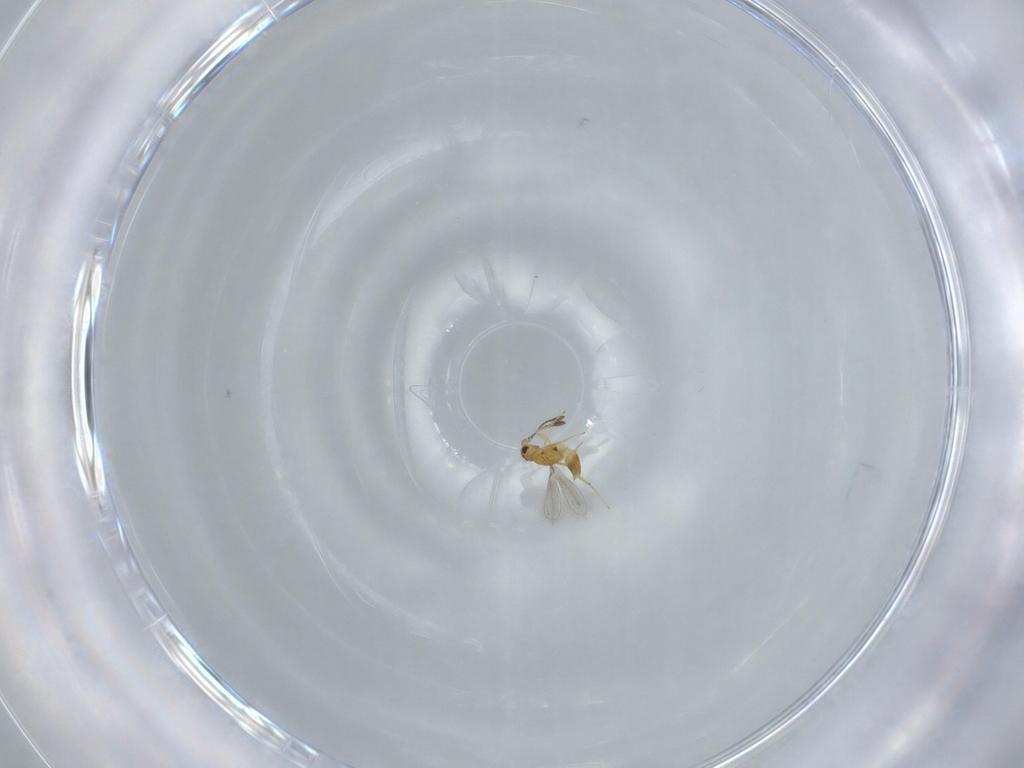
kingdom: Animalia
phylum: Arthropoda
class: Insecta
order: Hymenoptera
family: Mymaridae
